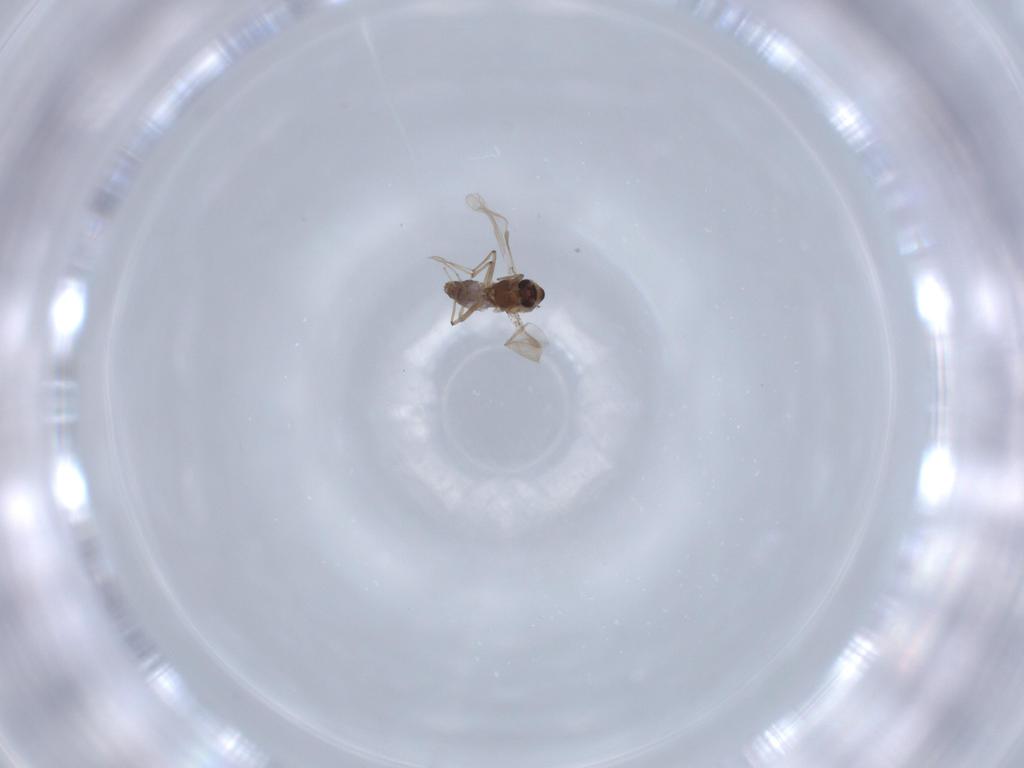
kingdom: Animalia
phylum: Arthropoda
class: Insecta
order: Diptera
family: Chironomidae
